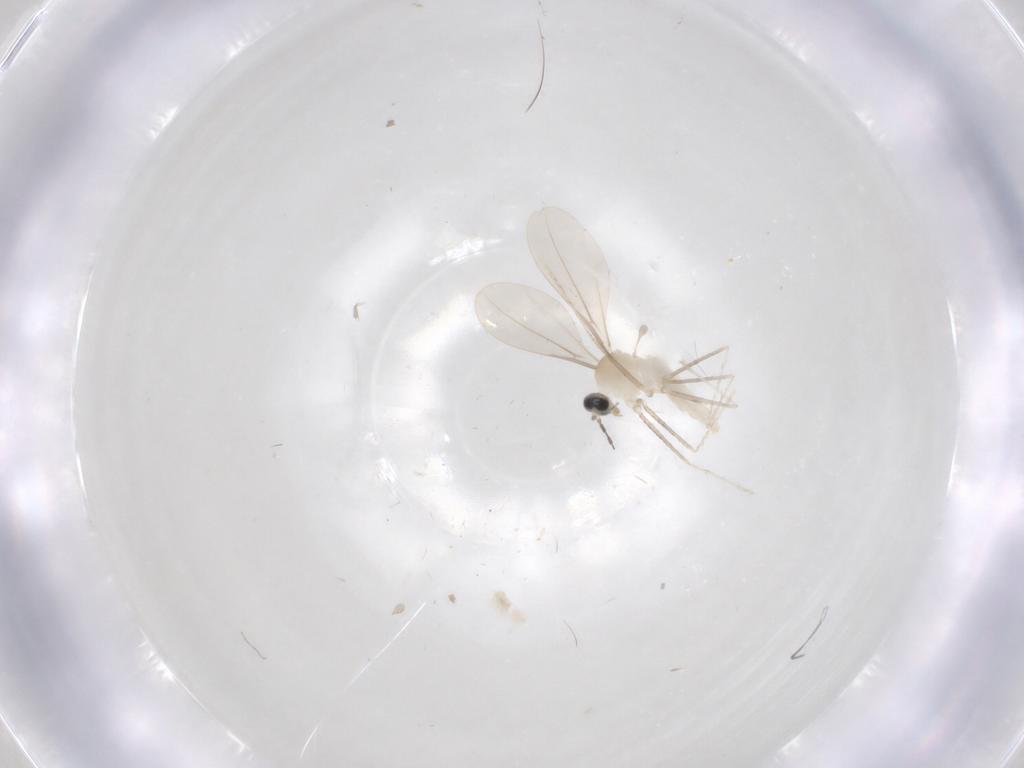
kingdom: Animalia
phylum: Arthropoda
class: Insecta
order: Diptera
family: Cecidomyiidae
